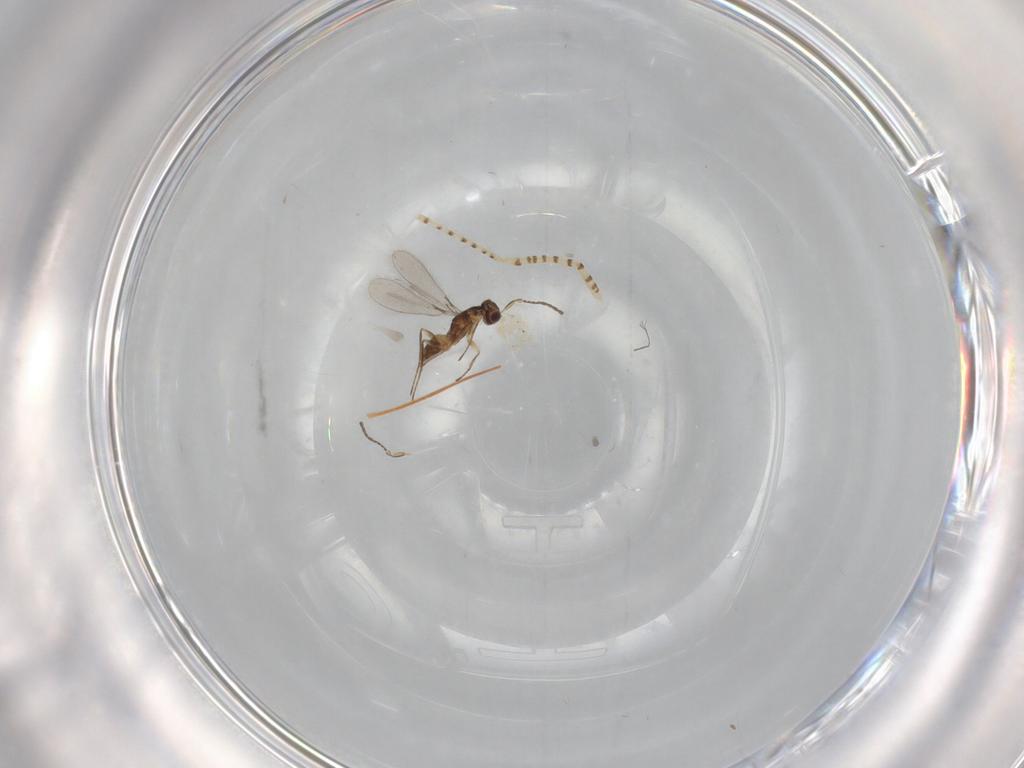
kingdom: Animalia
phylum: Arthropoda
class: Insecta
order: Hymenoptera
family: Mymaridae
